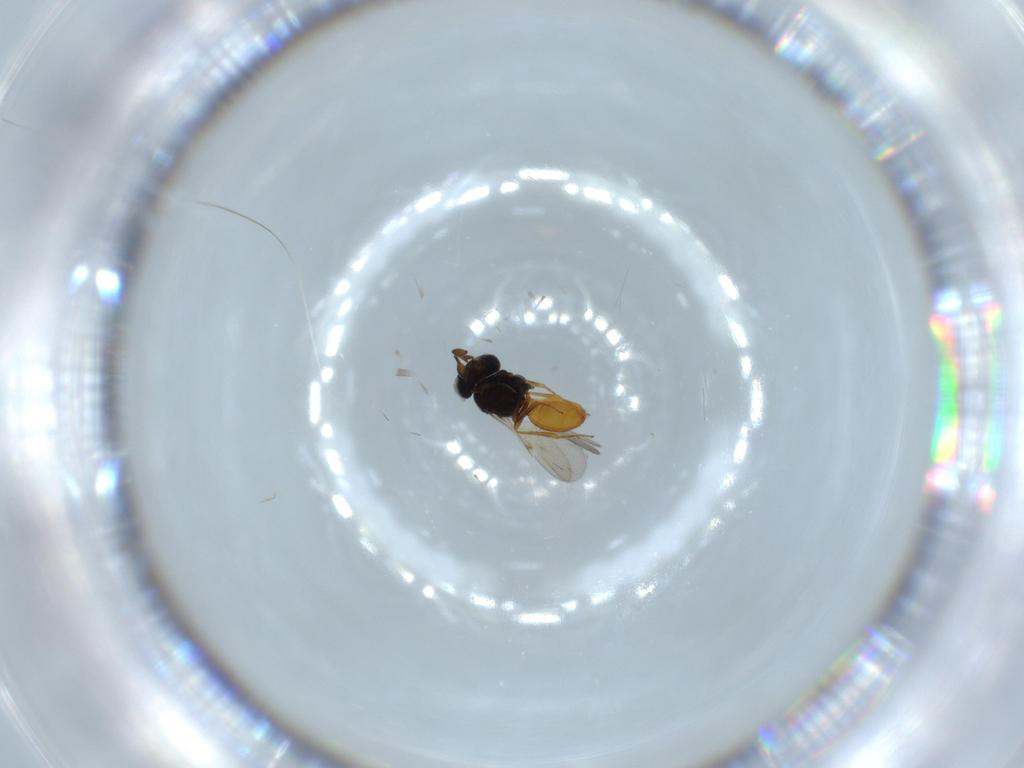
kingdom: Animalia
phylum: Arthropoda
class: Insecta
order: Hymenoptera
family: Scelionidae
